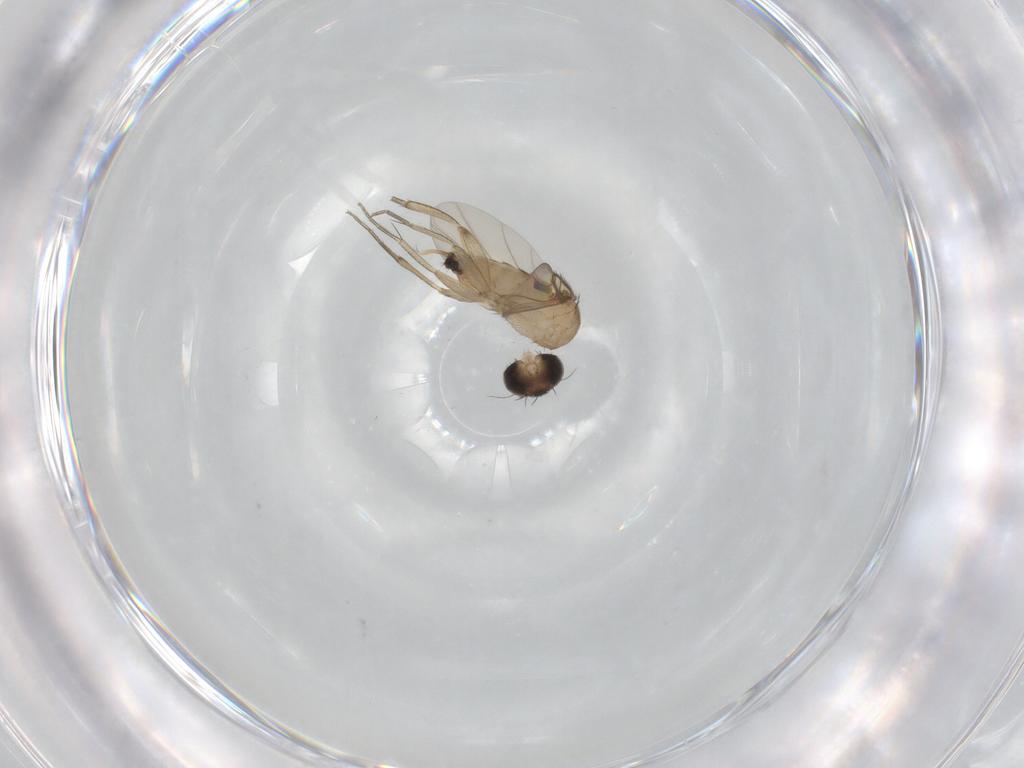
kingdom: Animalia
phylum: Arthropoda
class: Insecta
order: Diptera
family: Phoridae
